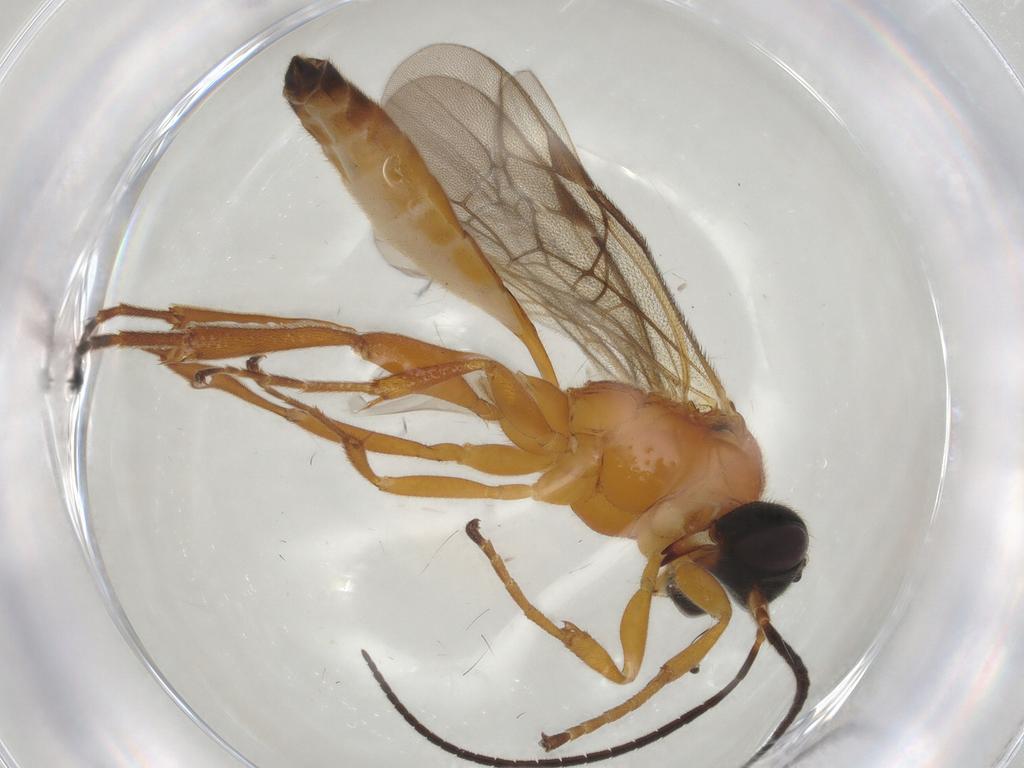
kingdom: Animalia
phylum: Arthropoda
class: Insecta
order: Hymenoptera
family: Ichneumonidae
